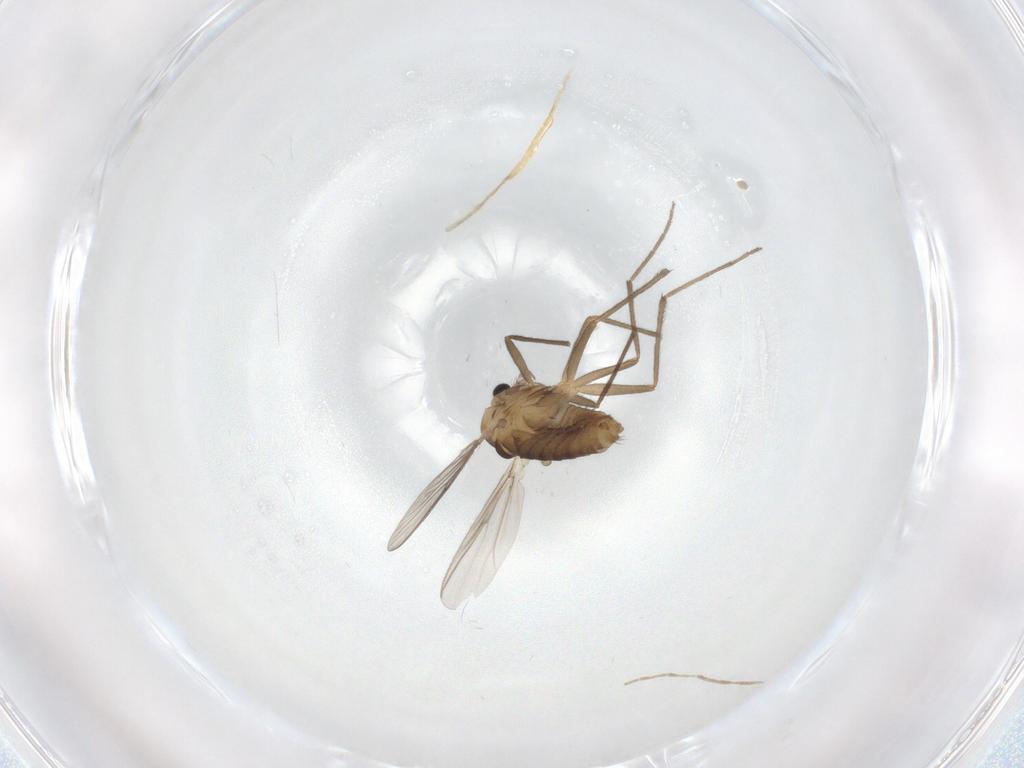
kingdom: Animalia
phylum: Arthropoda
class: Insecta
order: Diptera
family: Chironomidae
